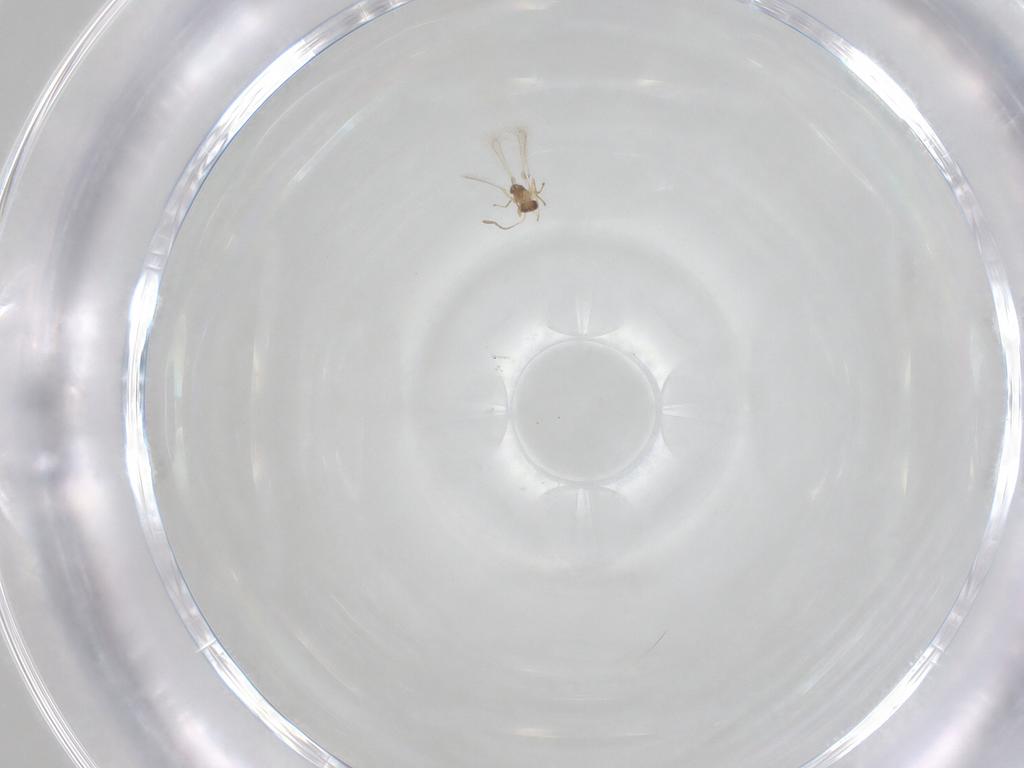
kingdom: Animalia
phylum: Arthropoda
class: Insecta
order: Hymenoptera
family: Mymaridae
